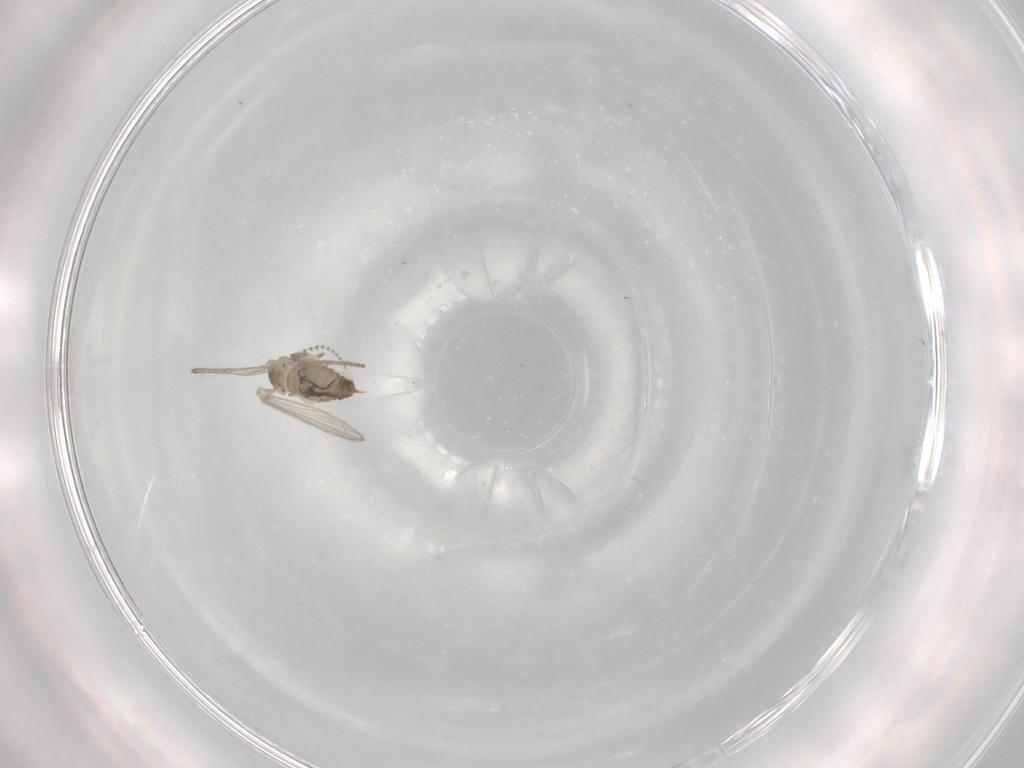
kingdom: Animalia
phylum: Arthropoda
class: Insecta
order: Diptera
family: Psychodidae
